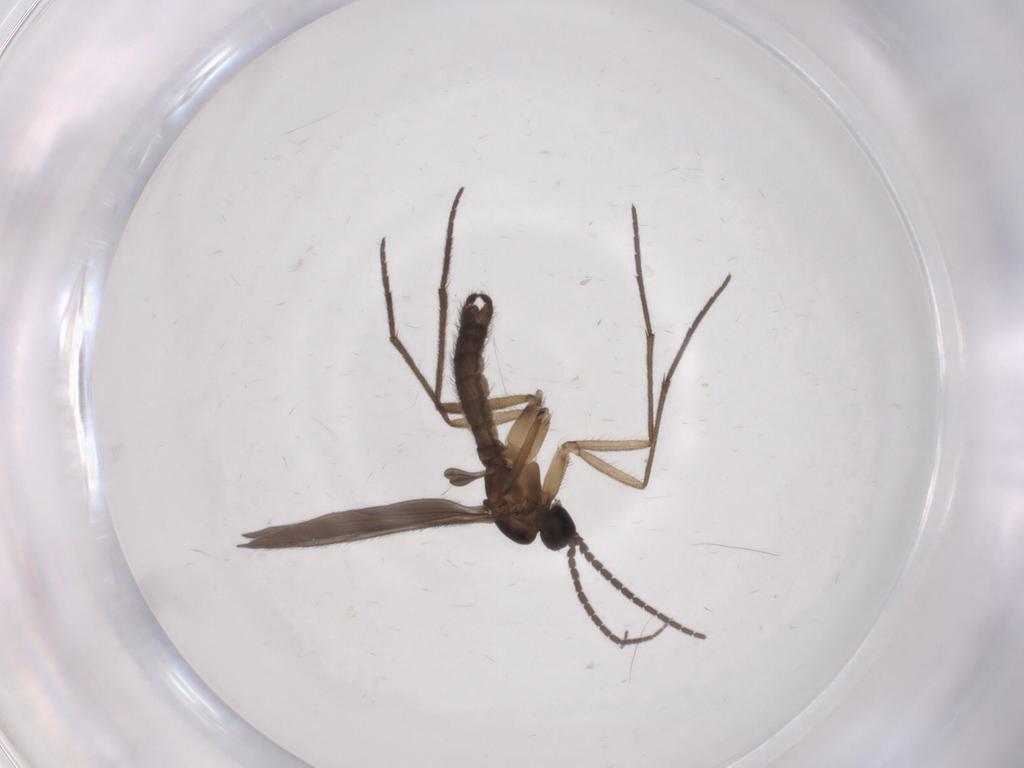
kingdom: Animalia
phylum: Arthropoda
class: Insecta
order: Diptera
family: Sciaridae
